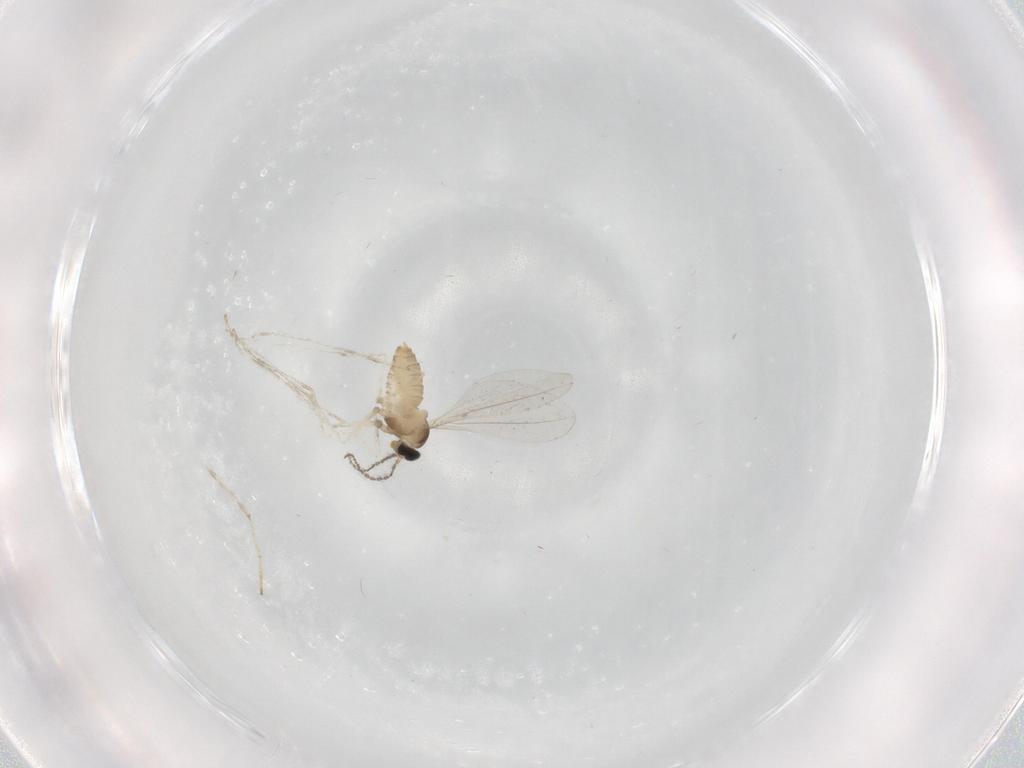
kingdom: Animalia
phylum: Arthropoda
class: Insecta
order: Diptera
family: Cecidomyiidae
